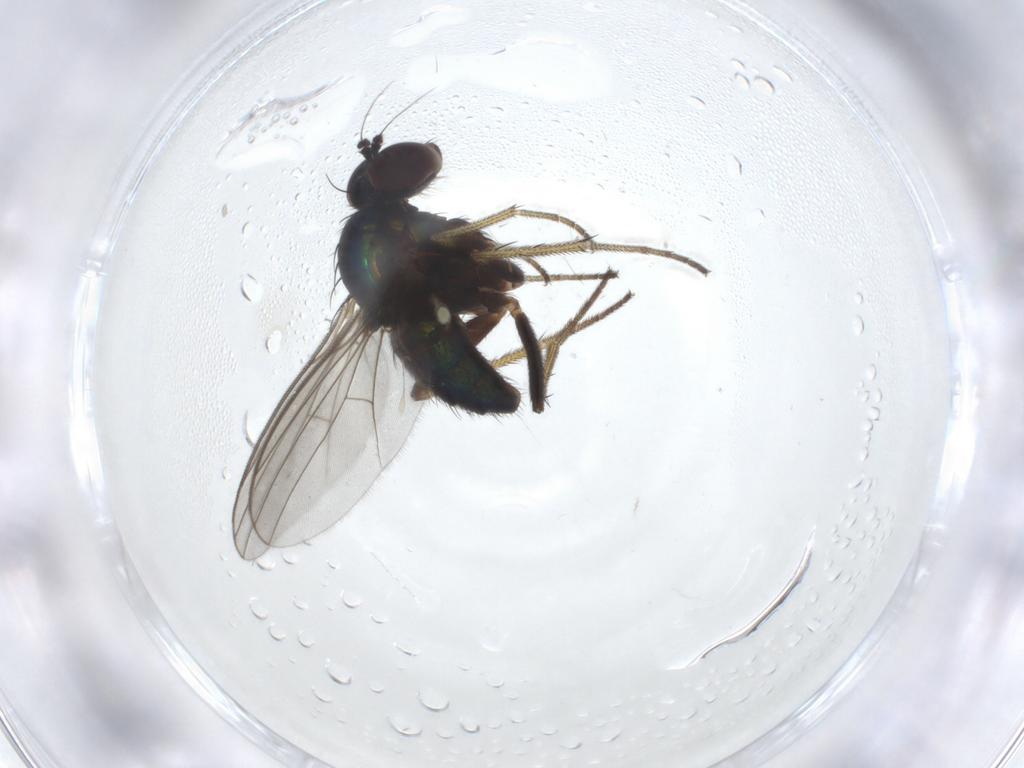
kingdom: Animalia
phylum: Arthropoda
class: Insecta
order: Diptera
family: Dolichopodidae
